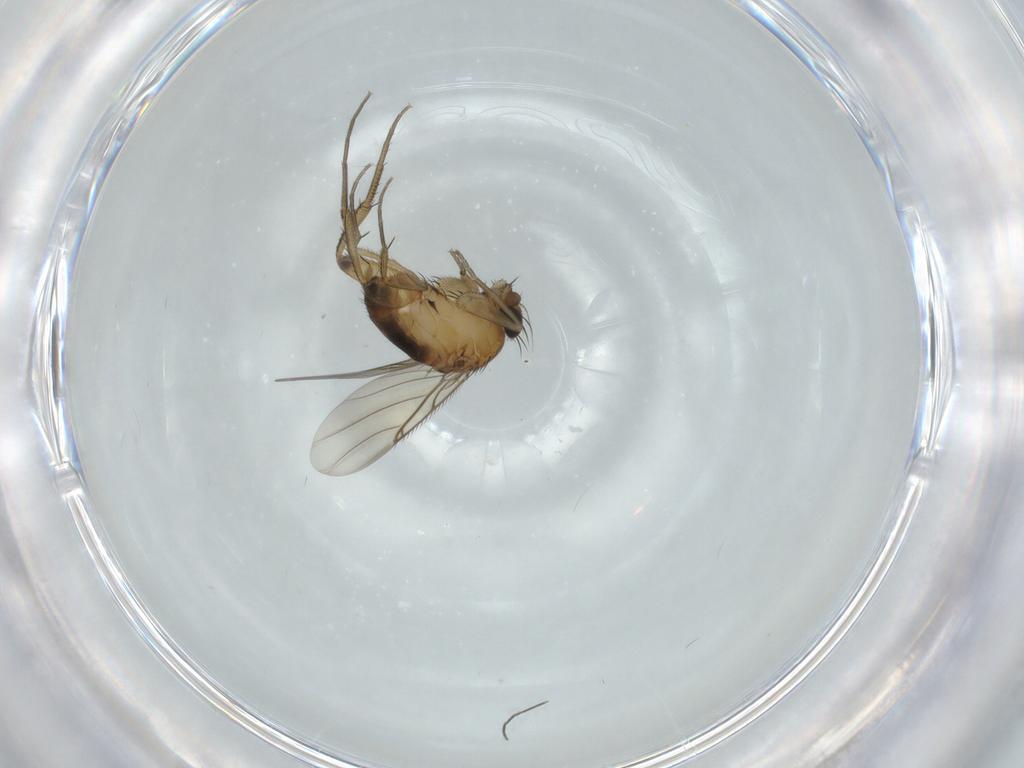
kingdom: Animalia
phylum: Arthropoda
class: Insecta
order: Diptera
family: Phoridae
